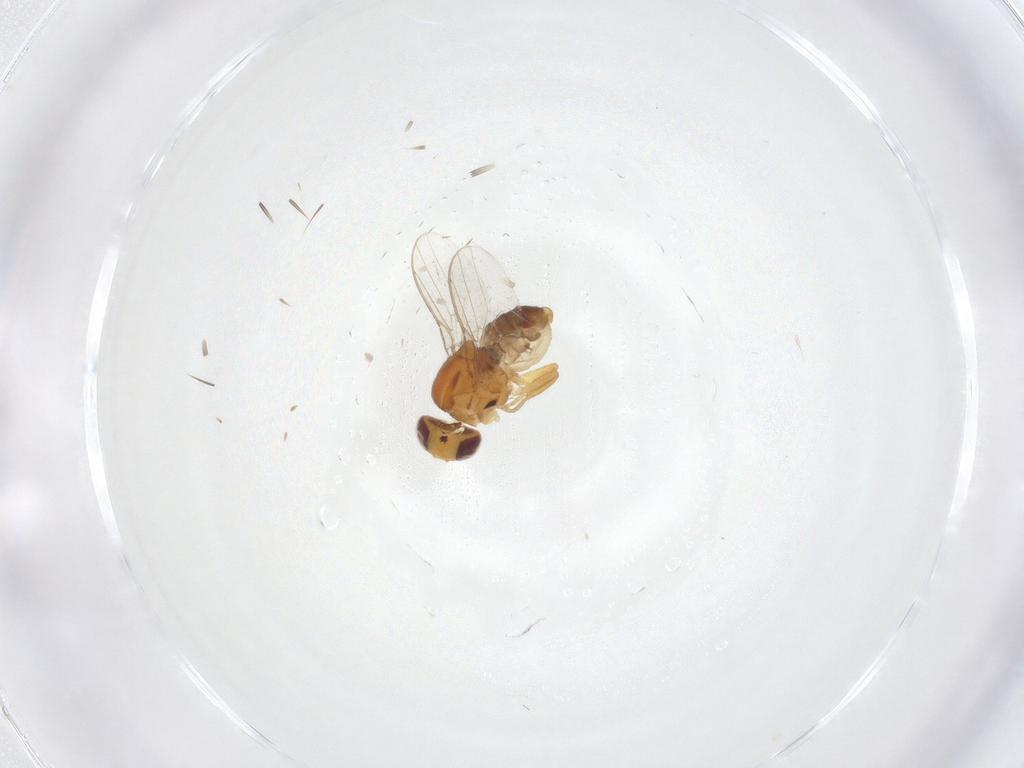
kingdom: Animalia
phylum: Arthropoda
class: Insecta
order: Diptera
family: Chloropidae
